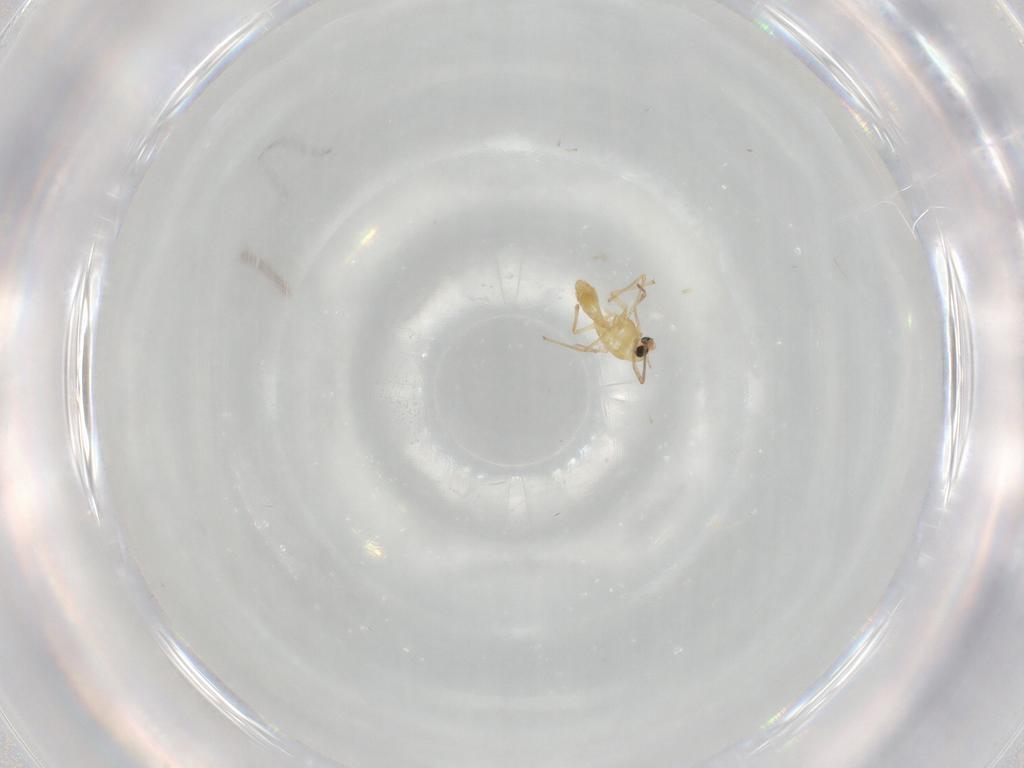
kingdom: Animalia
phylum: Arthropoda
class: Insecta
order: Diptera
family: Chironomidae
